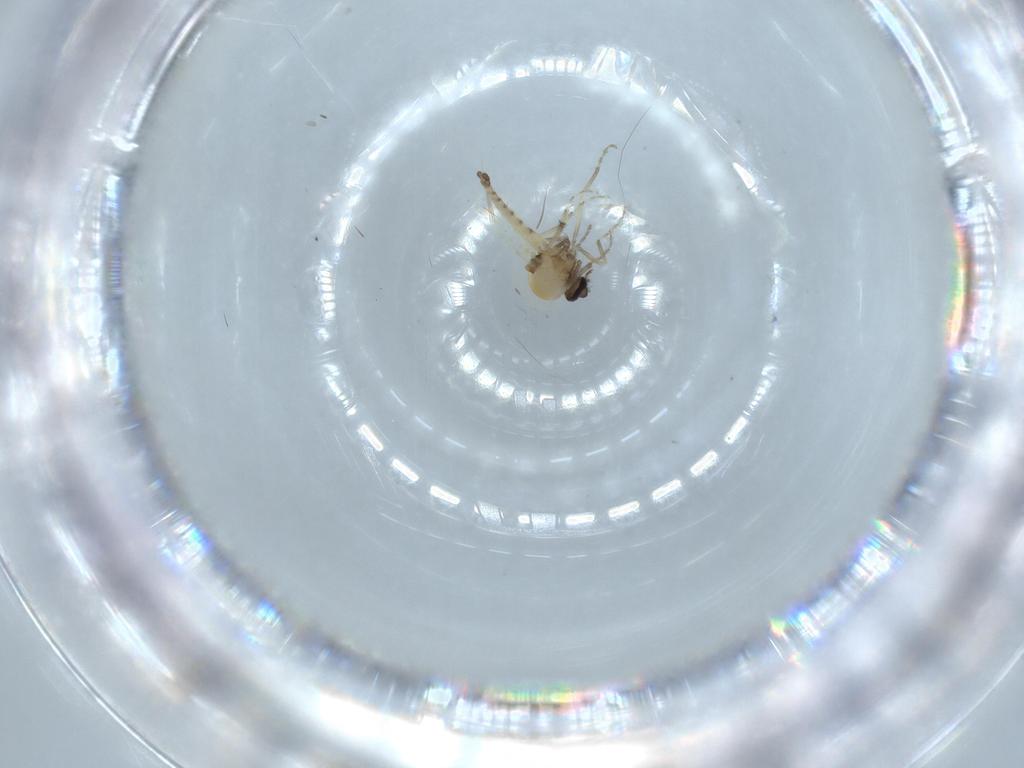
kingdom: Animalia
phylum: Arthropoda
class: Insecta
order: Diptera
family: Ceratopogonidae
